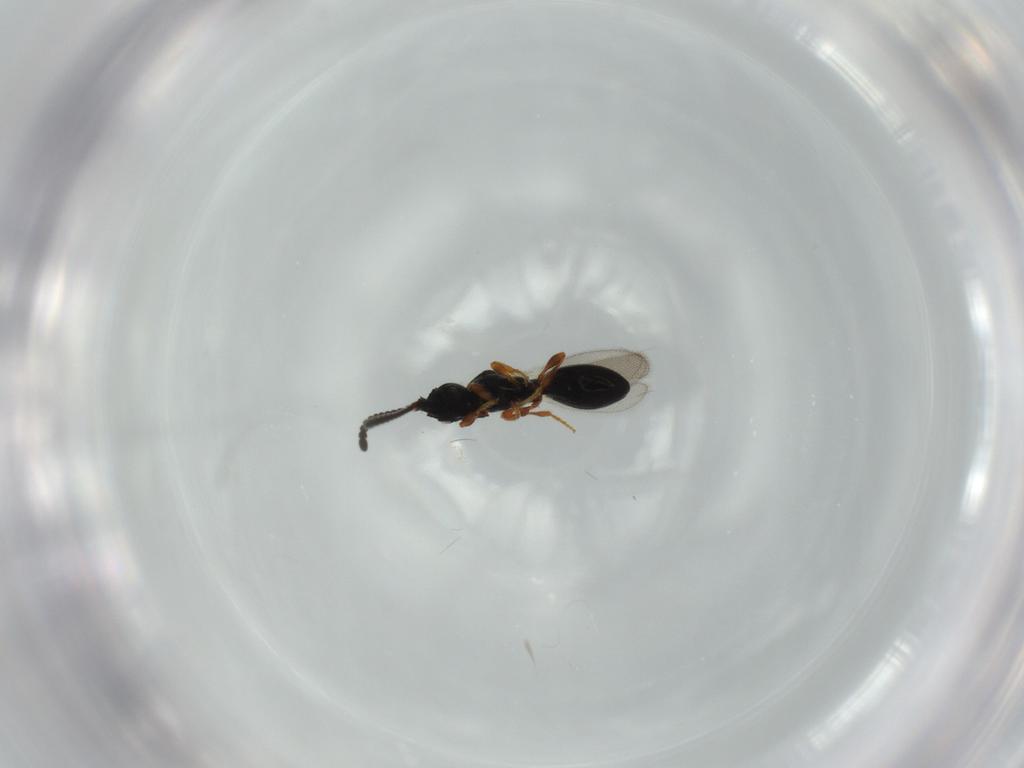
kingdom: Animalia
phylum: Arthropoda
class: Insecta
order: Hymenoptera
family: Diapriidae
